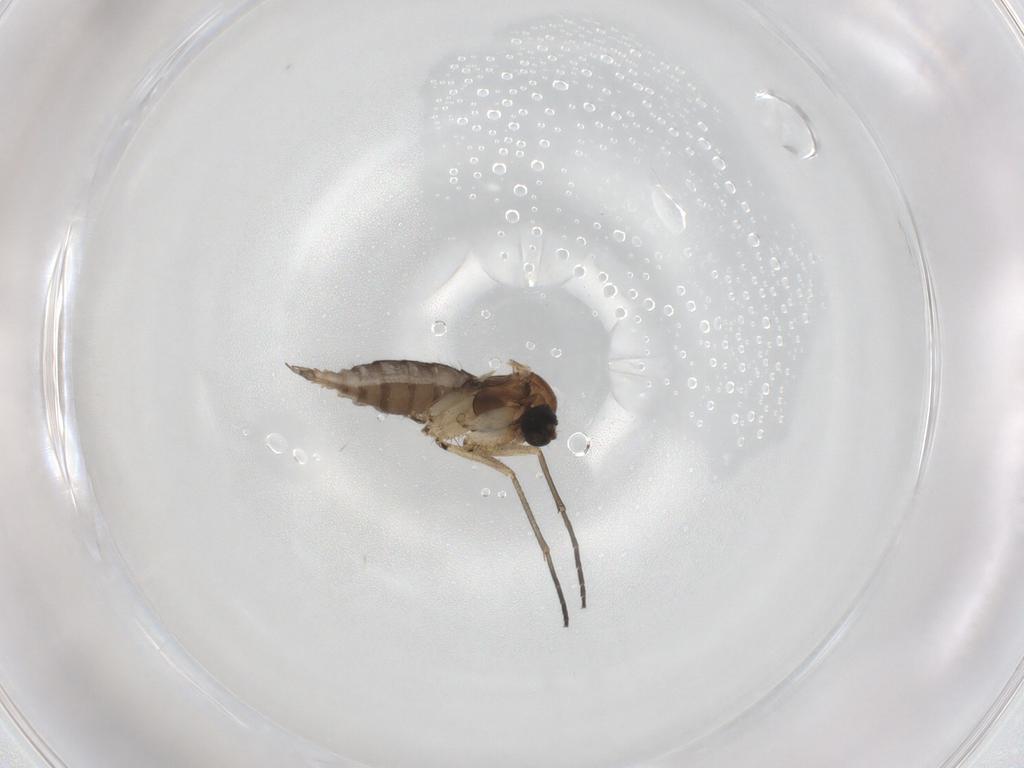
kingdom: Animalia
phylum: Arthropoda
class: Insecta
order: Diptera
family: Sciaridae
